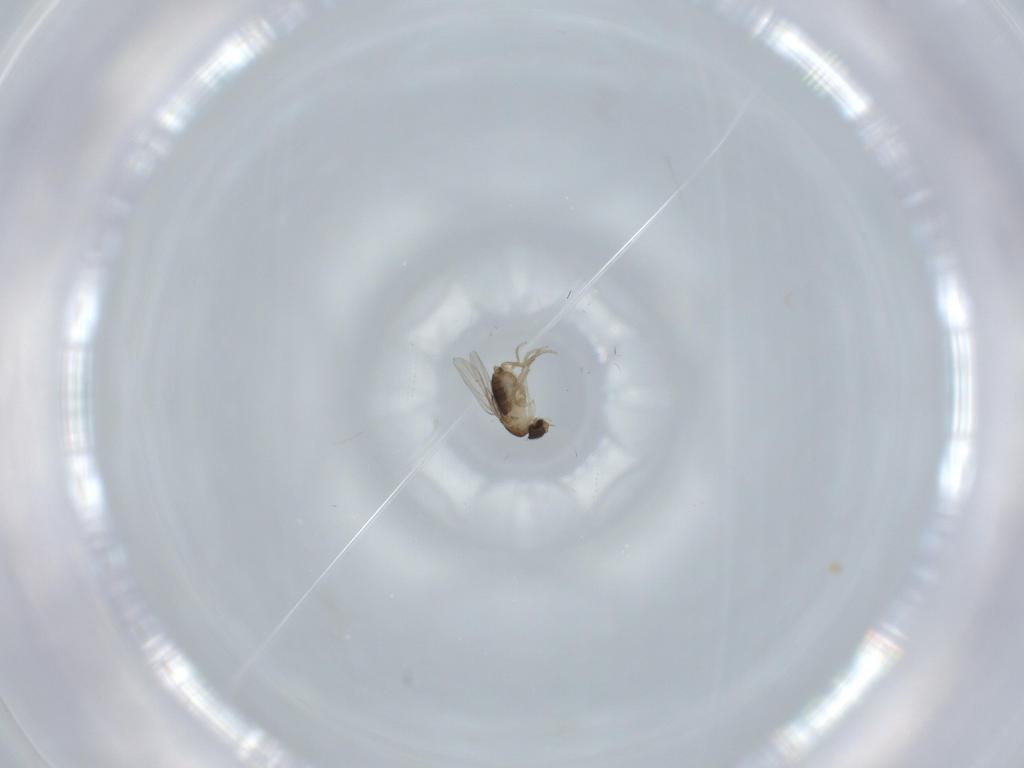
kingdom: Animalia
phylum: Arthropoda
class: Insecta
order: Diptera
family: Phoridae
